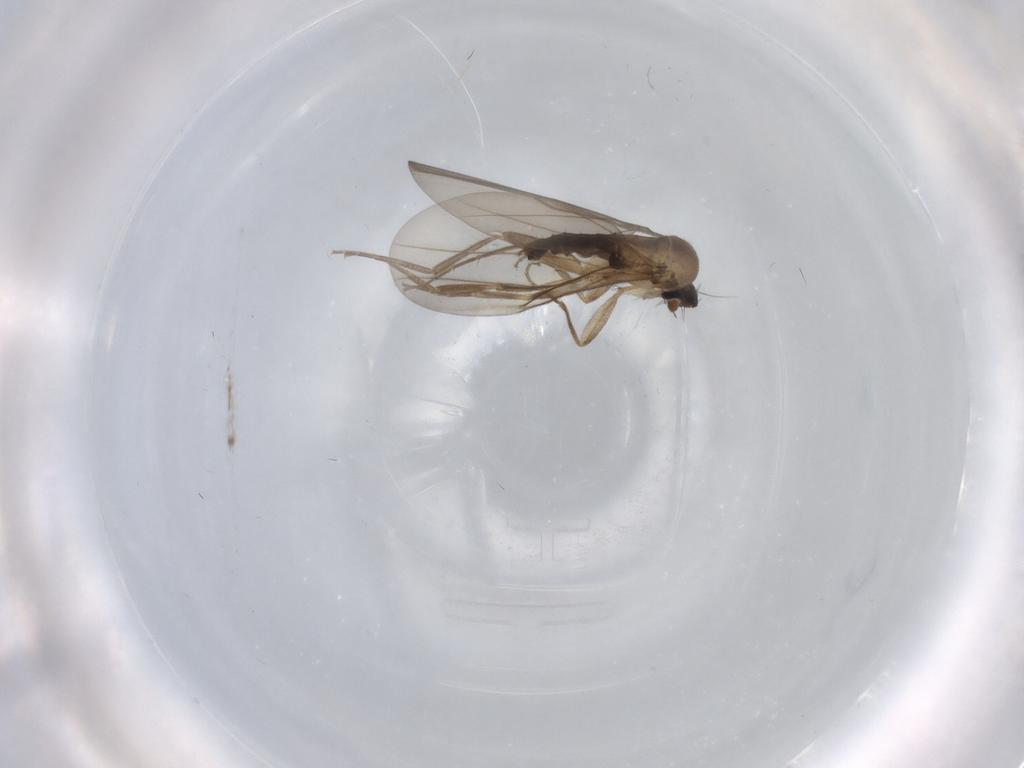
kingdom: Animalia
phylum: Arthropoda
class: Insecta
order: Diptera
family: Phoridae
